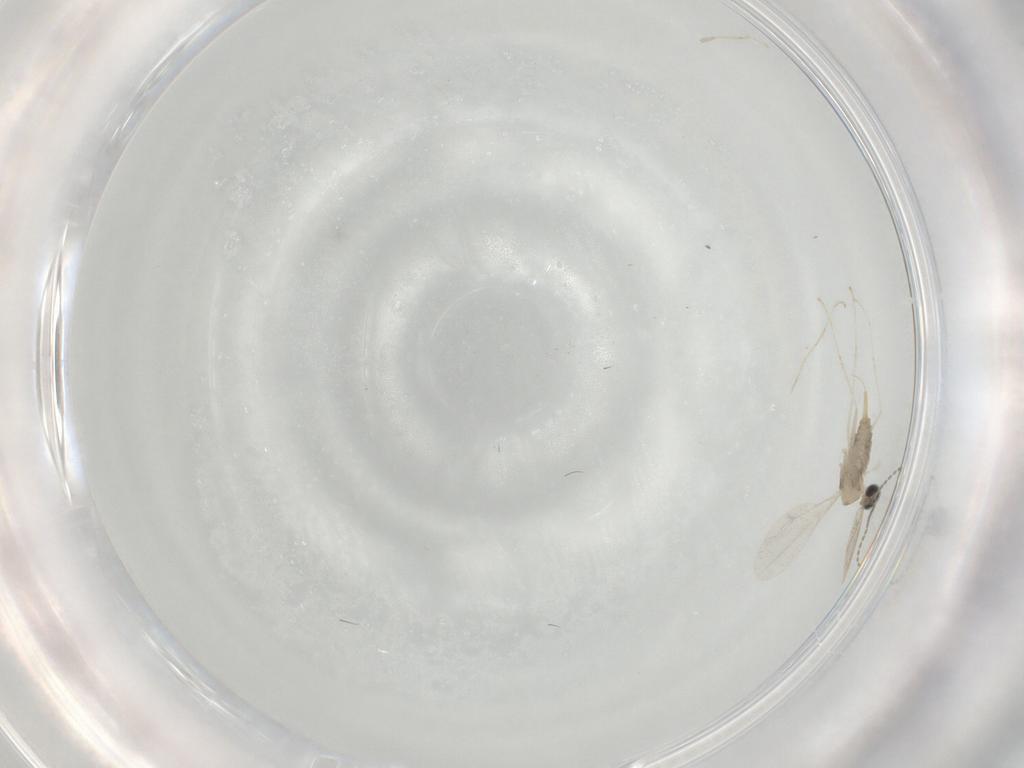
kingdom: Animalia
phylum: Arthropoda
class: Insecta
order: Diptera
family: Cecidomyiidae
